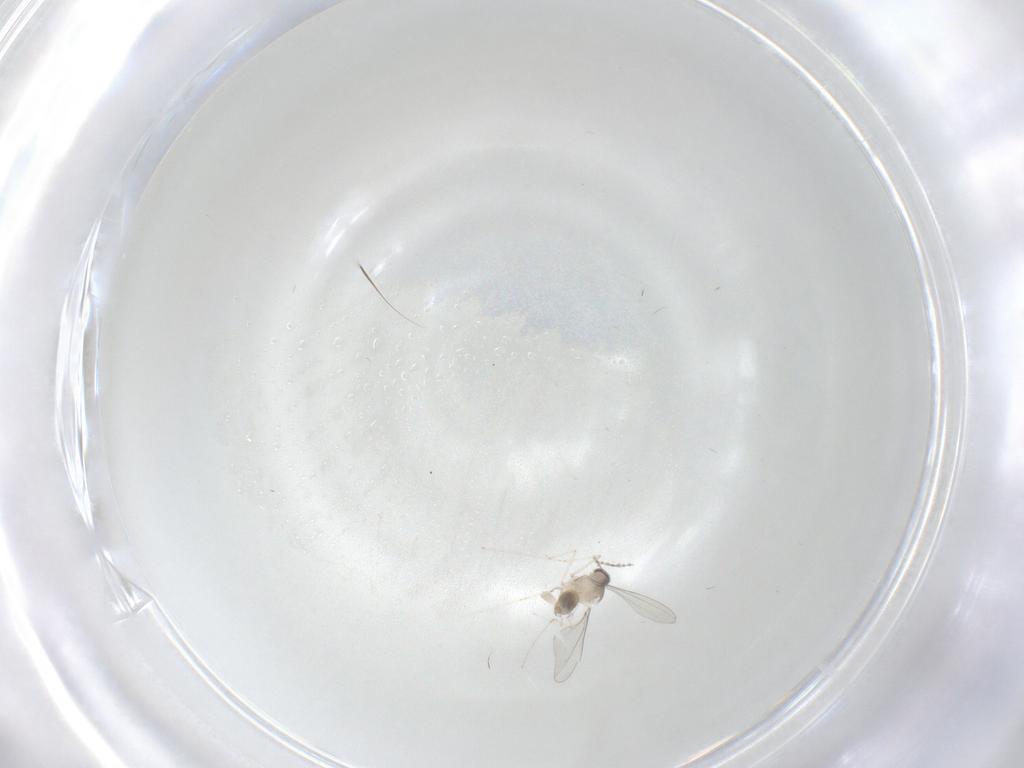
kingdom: Animalia
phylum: Arthropoda
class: Insecta
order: Diptera
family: Cecidomyiidae
